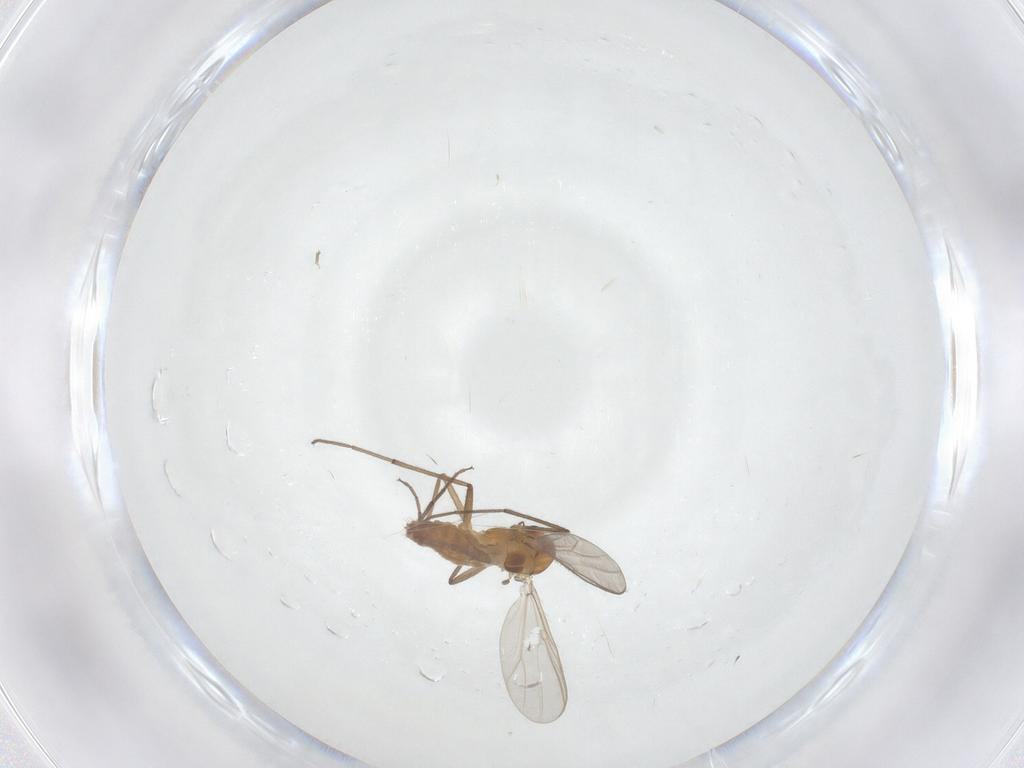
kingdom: Animalia
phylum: Arthropoda
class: Insecta
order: Diptera
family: Chironomidae
